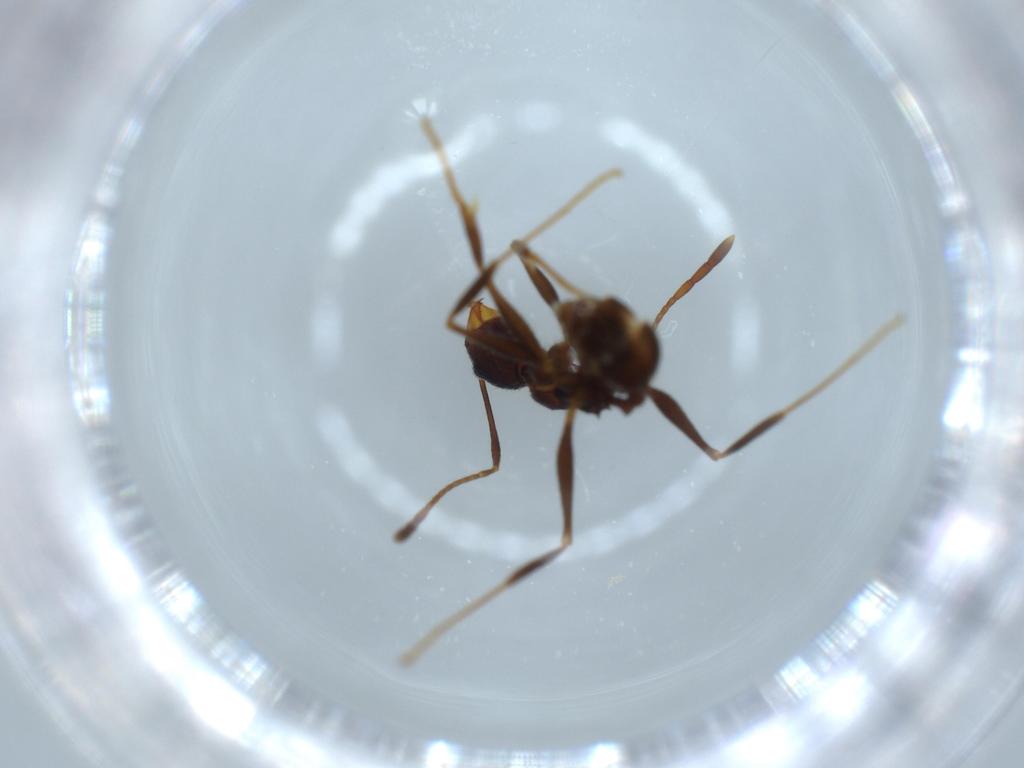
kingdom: Animalia
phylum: Arthropoda
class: Insecta
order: Hymenoptera
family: Formicidae
